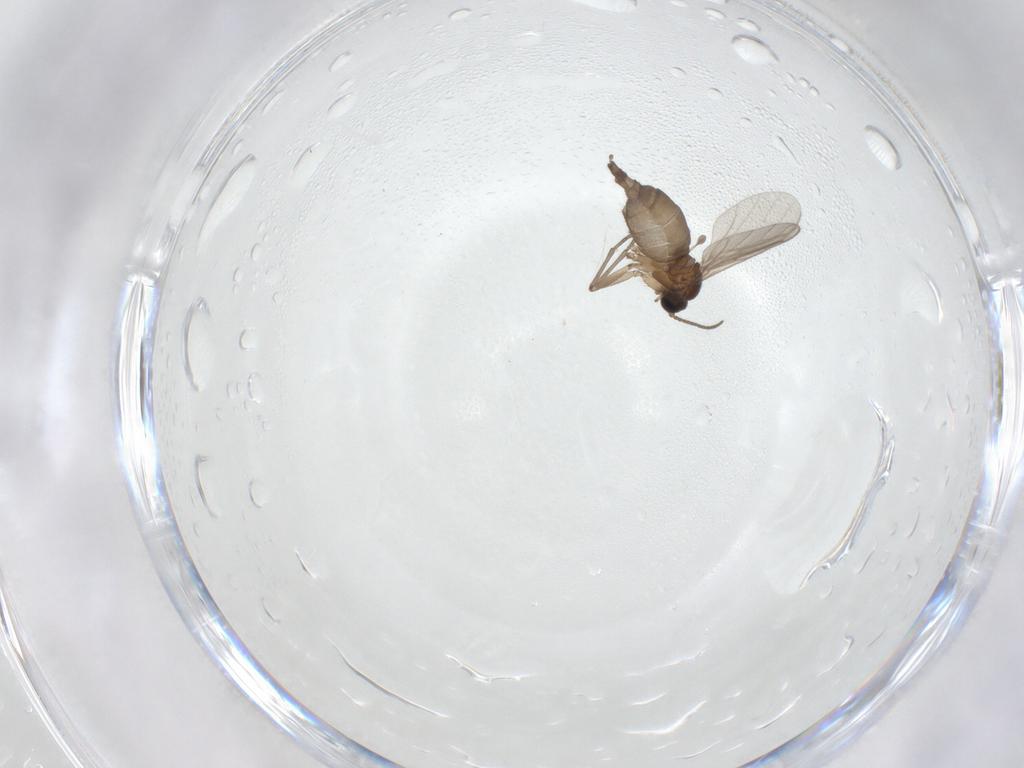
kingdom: Animalia
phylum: Arthropoda
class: Insecta
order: Diptera
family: Sciaridae
